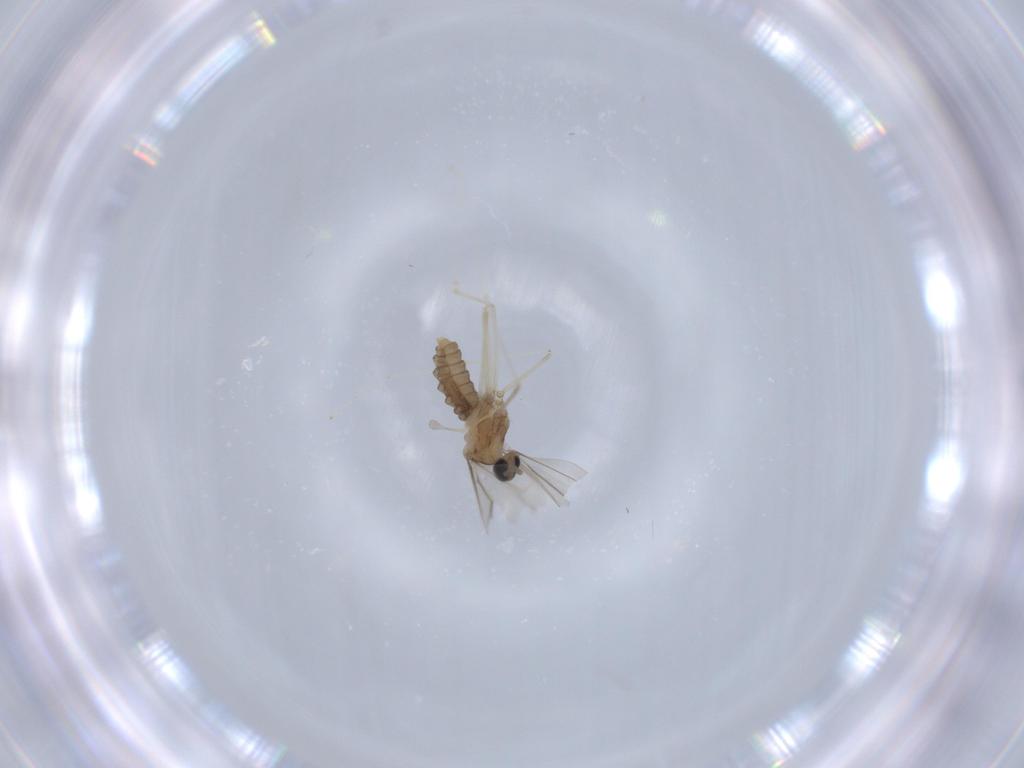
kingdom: Animalia
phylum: Arthropoda
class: Insecta
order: Diptera
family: Cecidomyiidae
